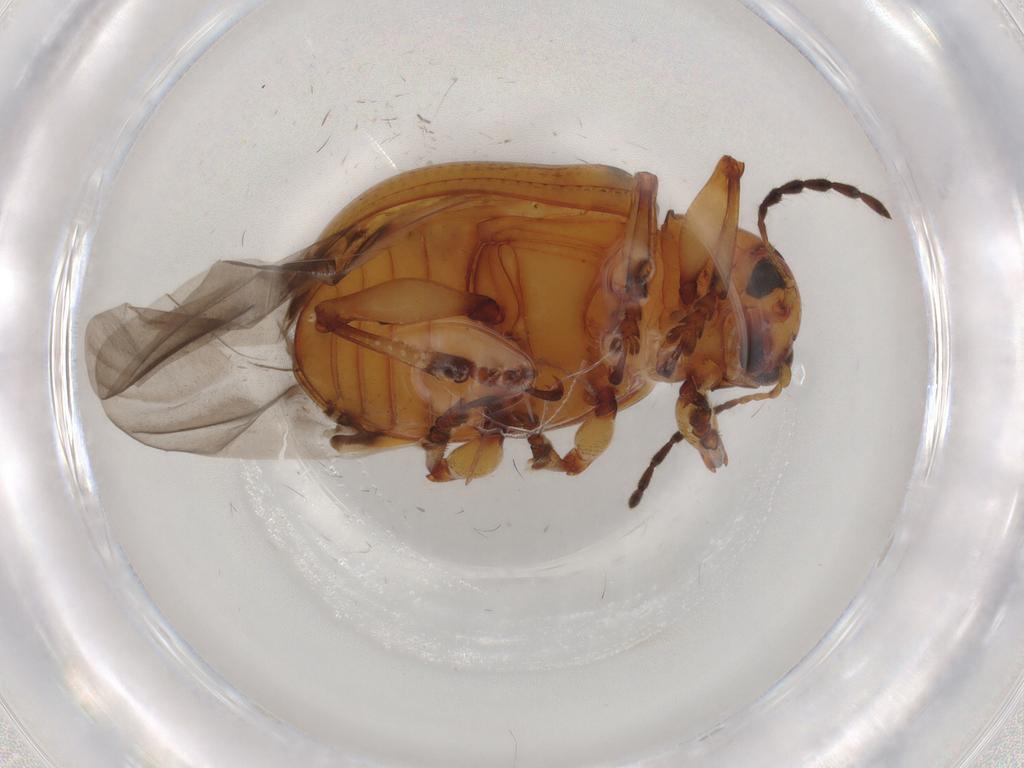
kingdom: Animalia
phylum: Arthropoda
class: Insecta
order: Coleoptera
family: Chrysomelidae
